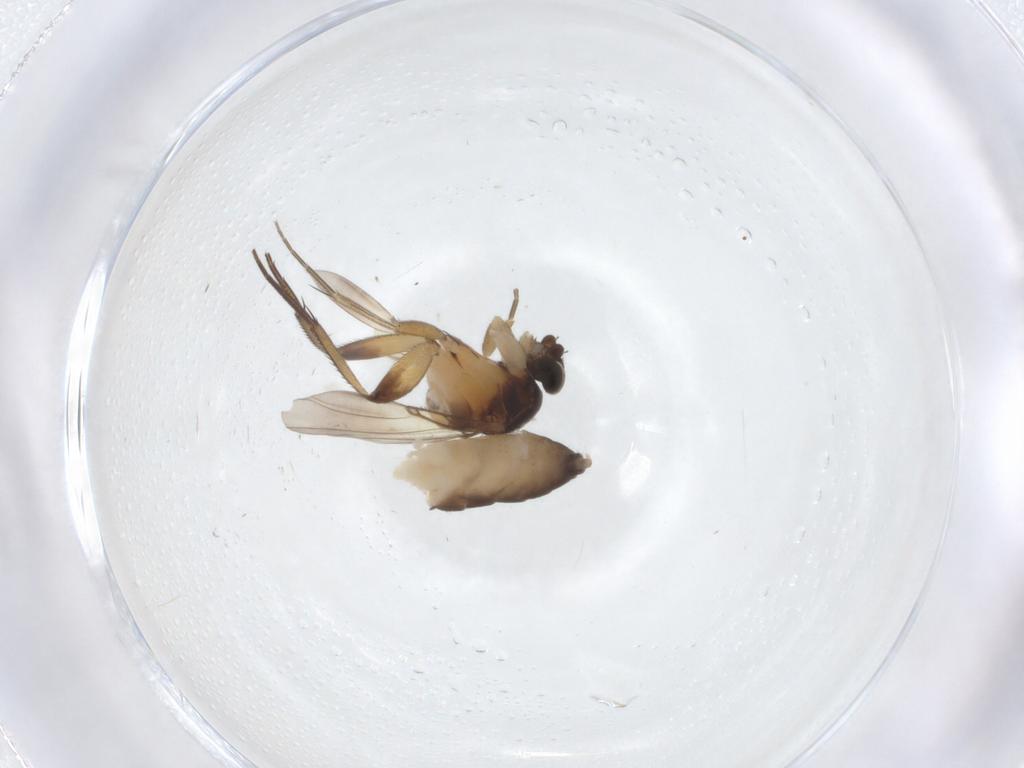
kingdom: Animalia
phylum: Arthropoda
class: Insecta
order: Diptera
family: Phoridae
